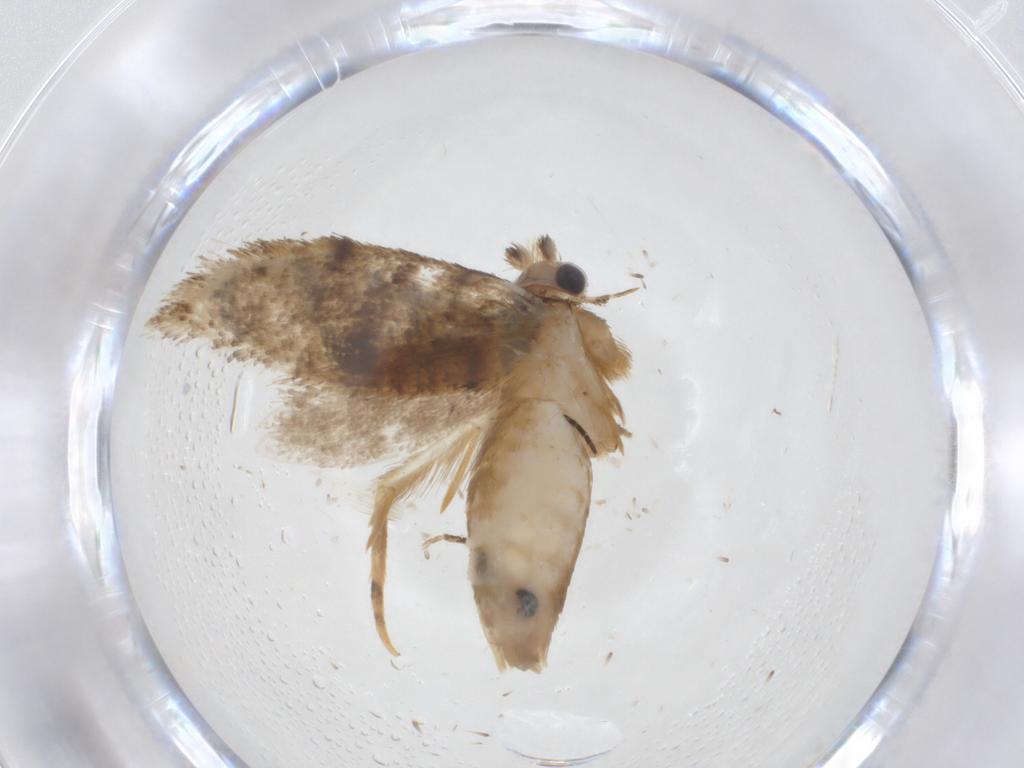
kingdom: Animalia
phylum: Arthropoda
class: Insecta
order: Lepidoptera
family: Tineidae
